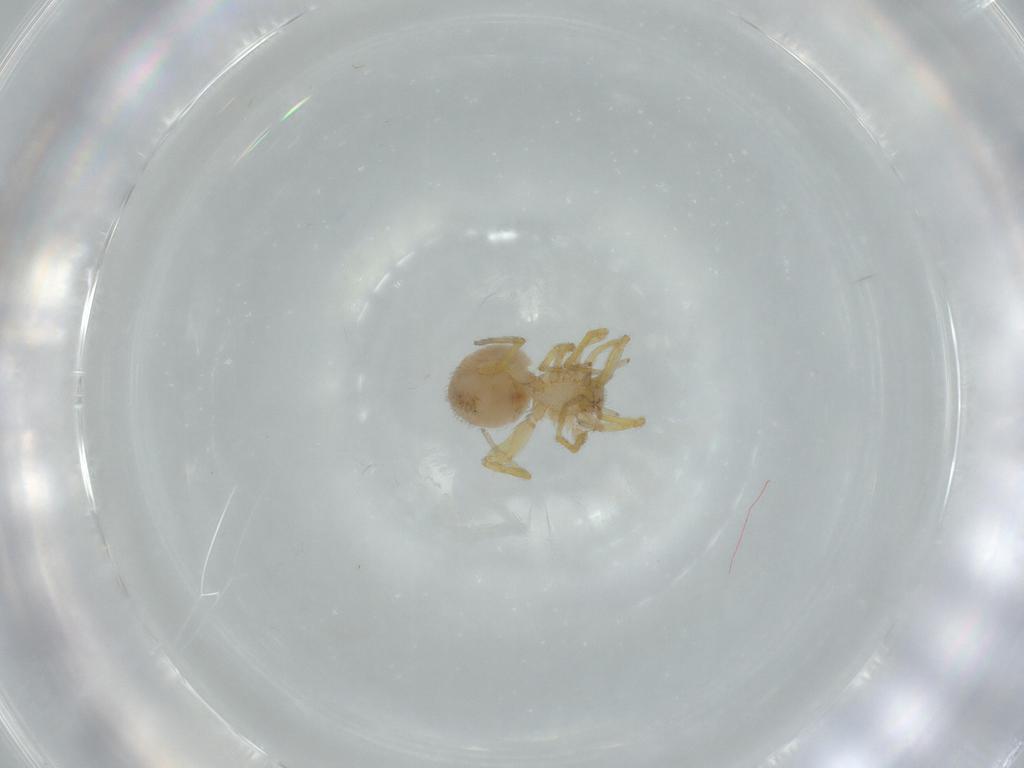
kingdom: Animalia
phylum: Arthropoda
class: Arachnida
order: Araneae
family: Oonopidae
